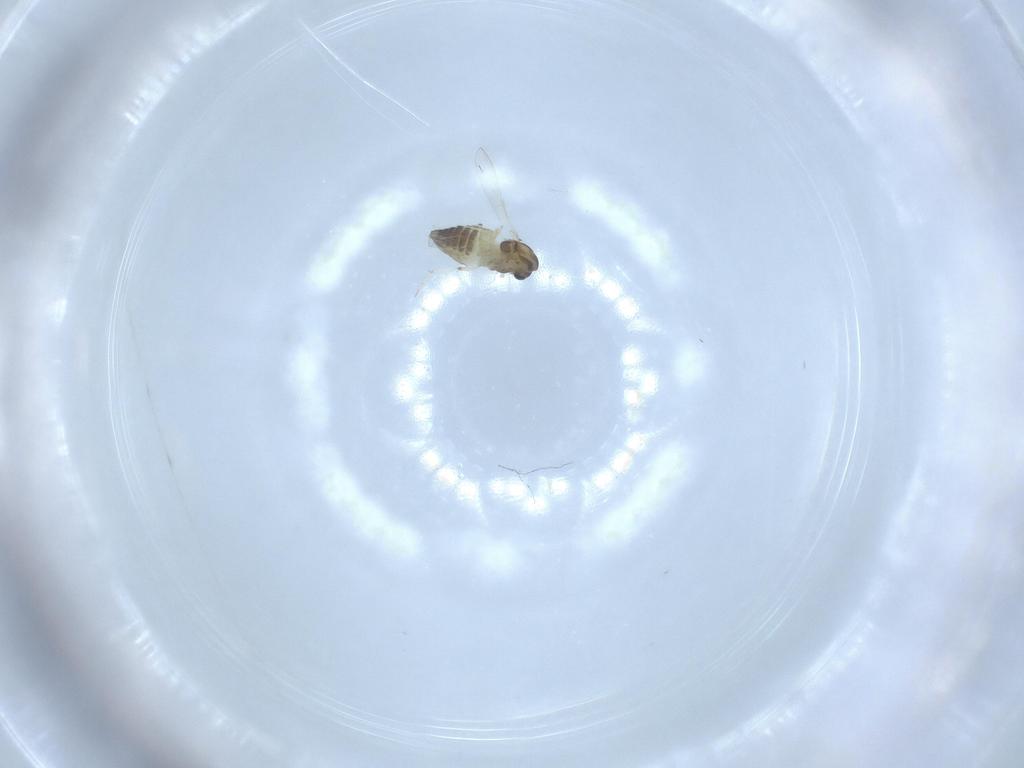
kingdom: Animalia
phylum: Arthropoda
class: Insecta
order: Diptera
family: Chironomidae
